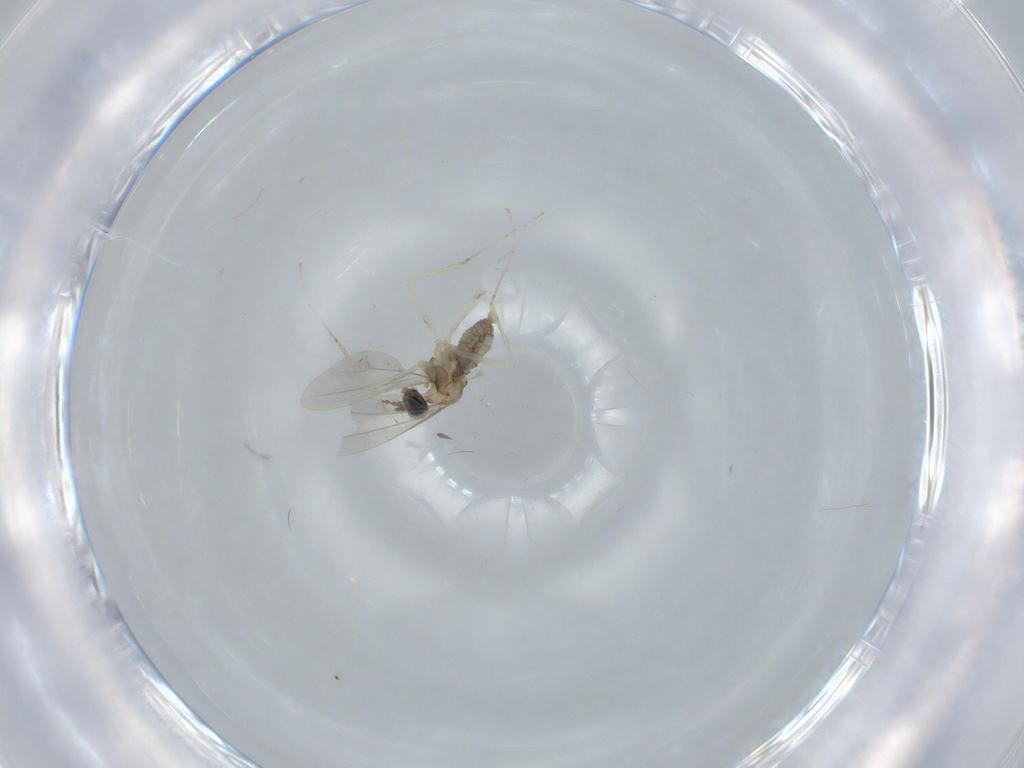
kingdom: Animalia
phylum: Arthropoda
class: Insecta
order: Diptera
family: Cecidomyiidae
